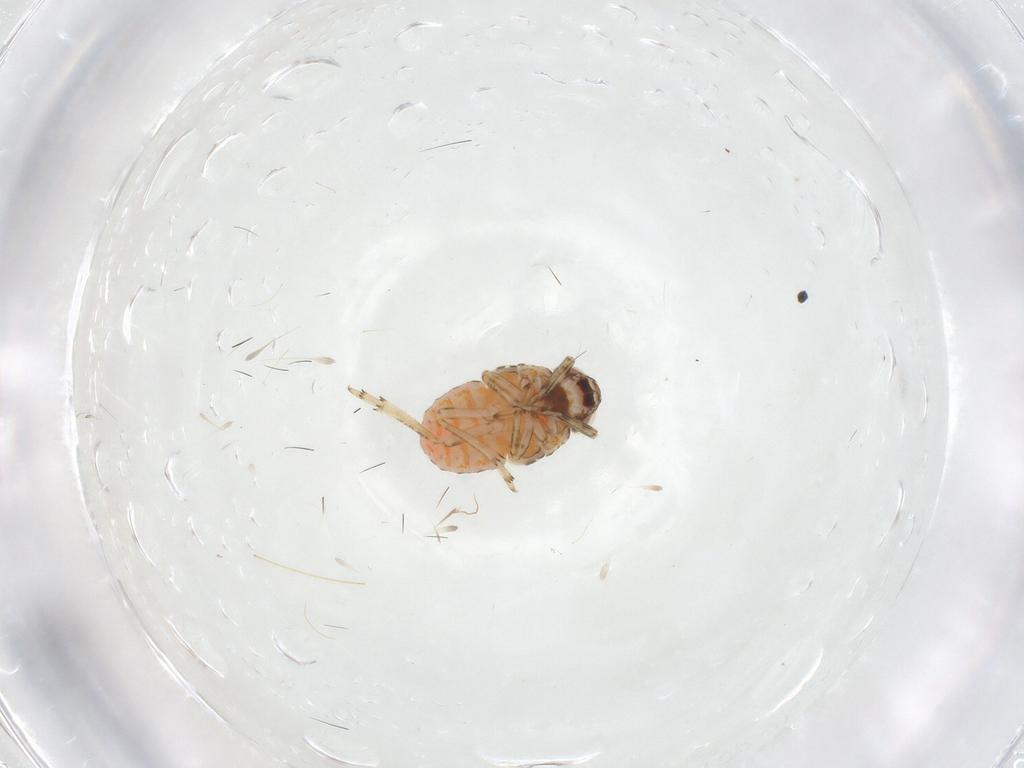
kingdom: Animalia
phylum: Arthropoda
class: Insecta
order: Hemiptera
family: Issidae
